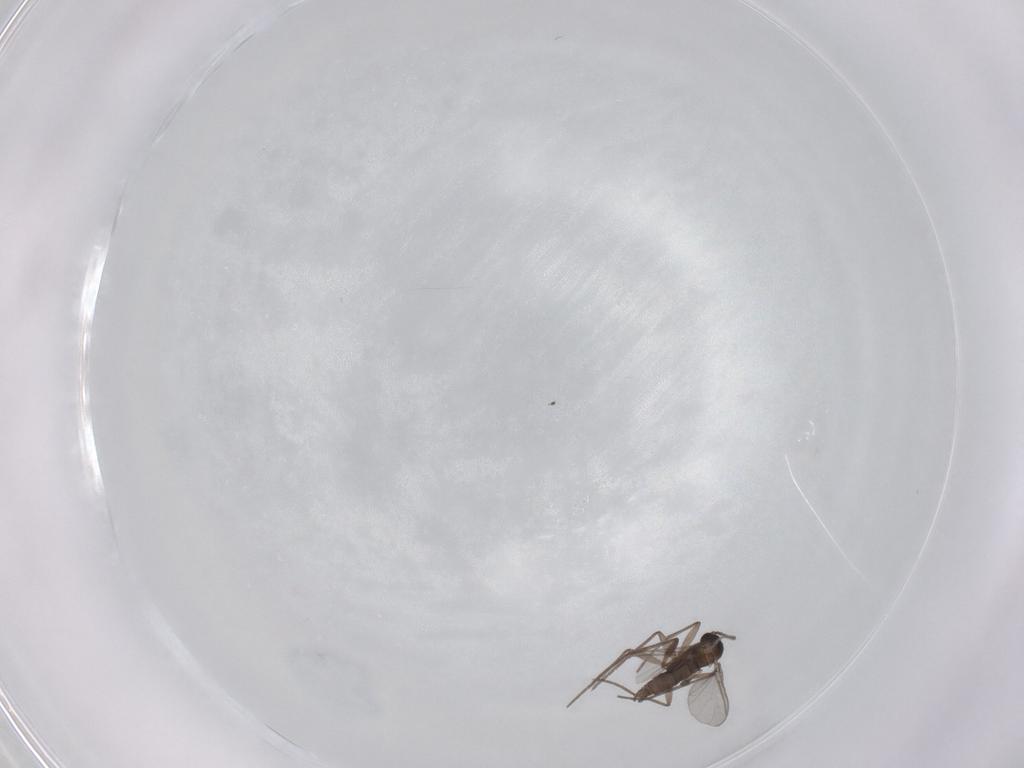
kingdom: Animalia
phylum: Arthropoda
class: Insecta
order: Diptera
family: Sciaridae
